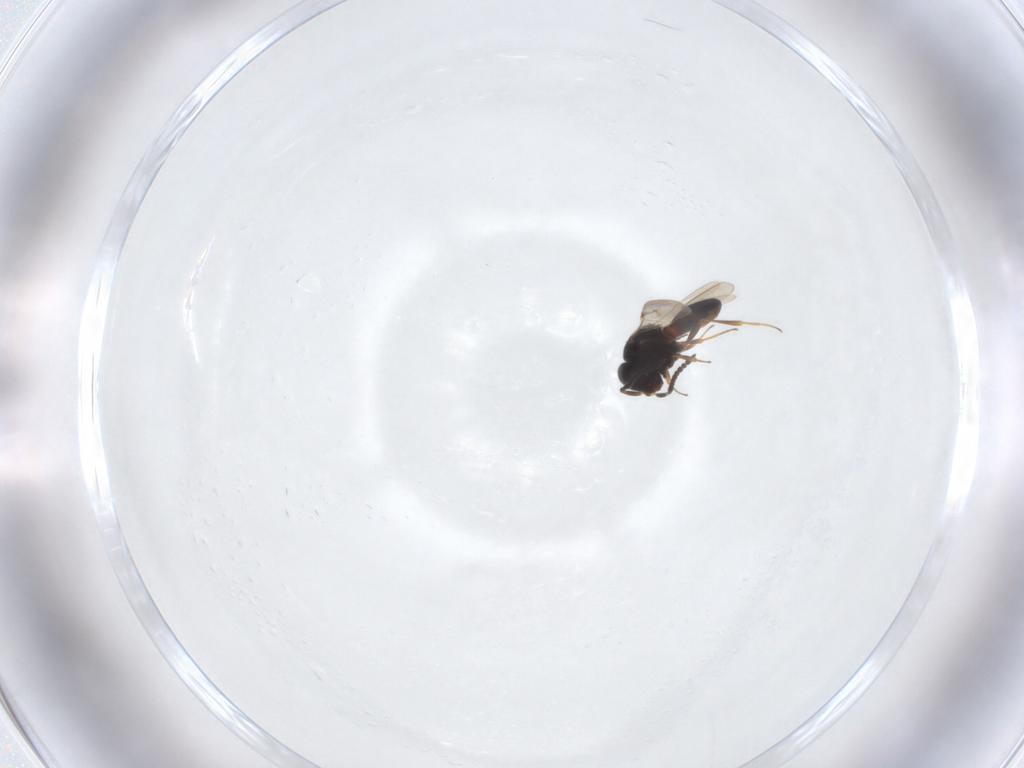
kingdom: Animalia
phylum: Arthropoda
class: Insecta
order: Hymenoptera
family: Scelionidae
